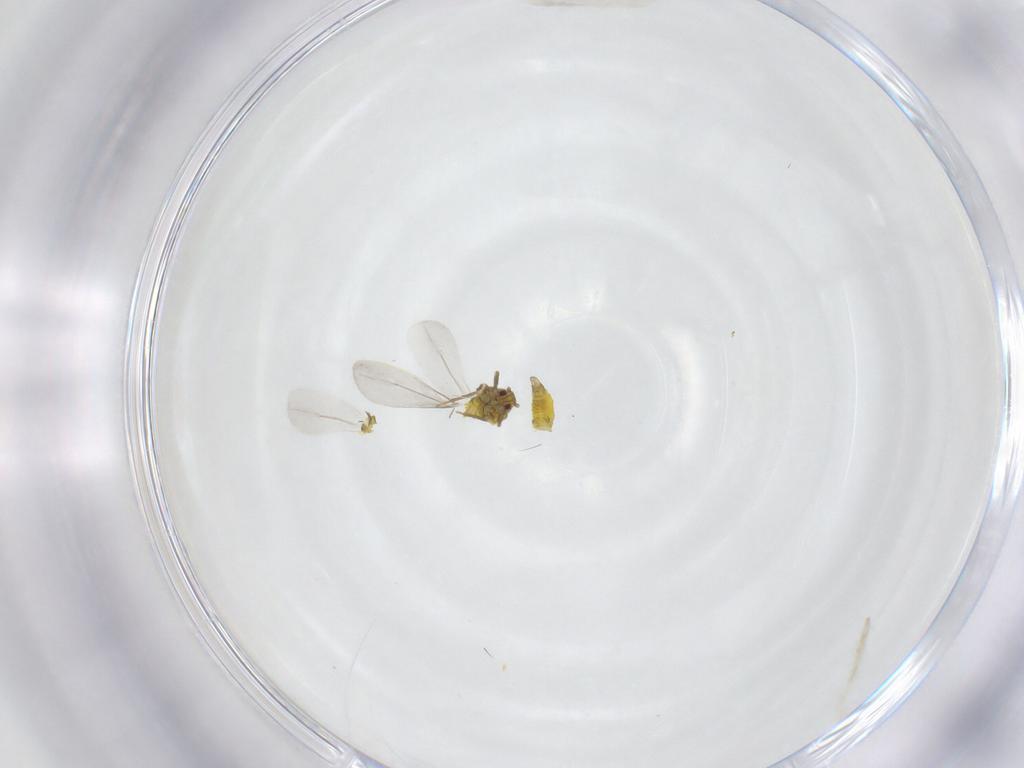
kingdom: Animalia
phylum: Arthropoda
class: Insecta
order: Hemiptera
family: Aleyrodidae
